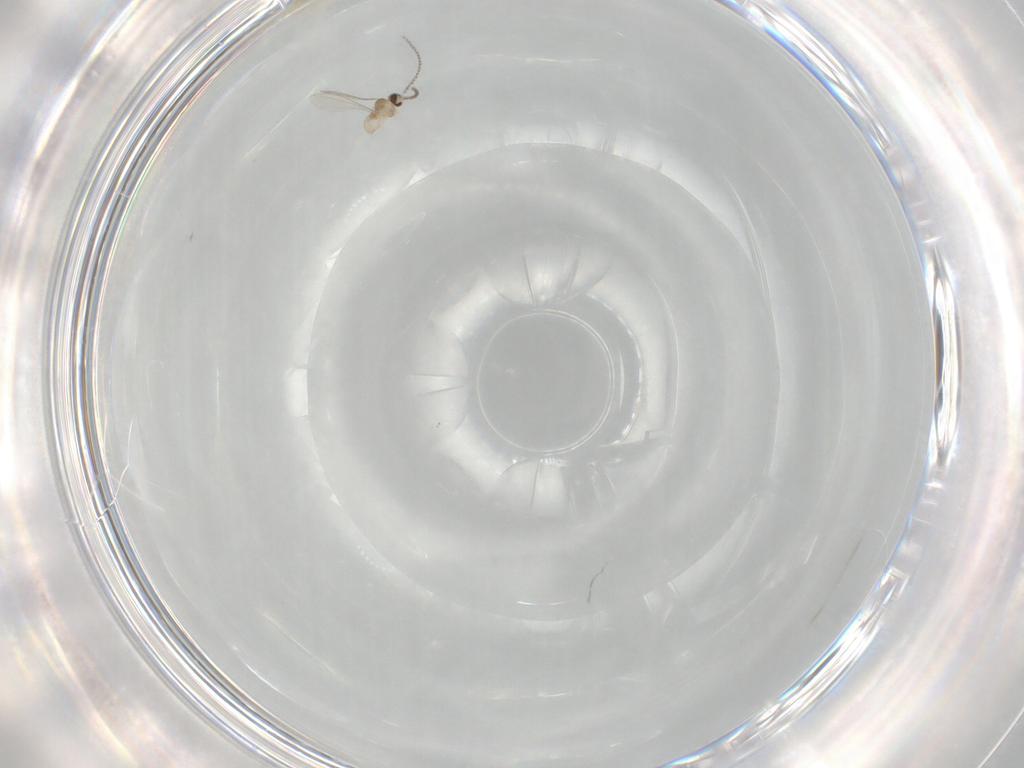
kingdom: Animalia
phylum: Arthropoda
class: Insecta
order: Diptera
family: Cecidomyiidae
